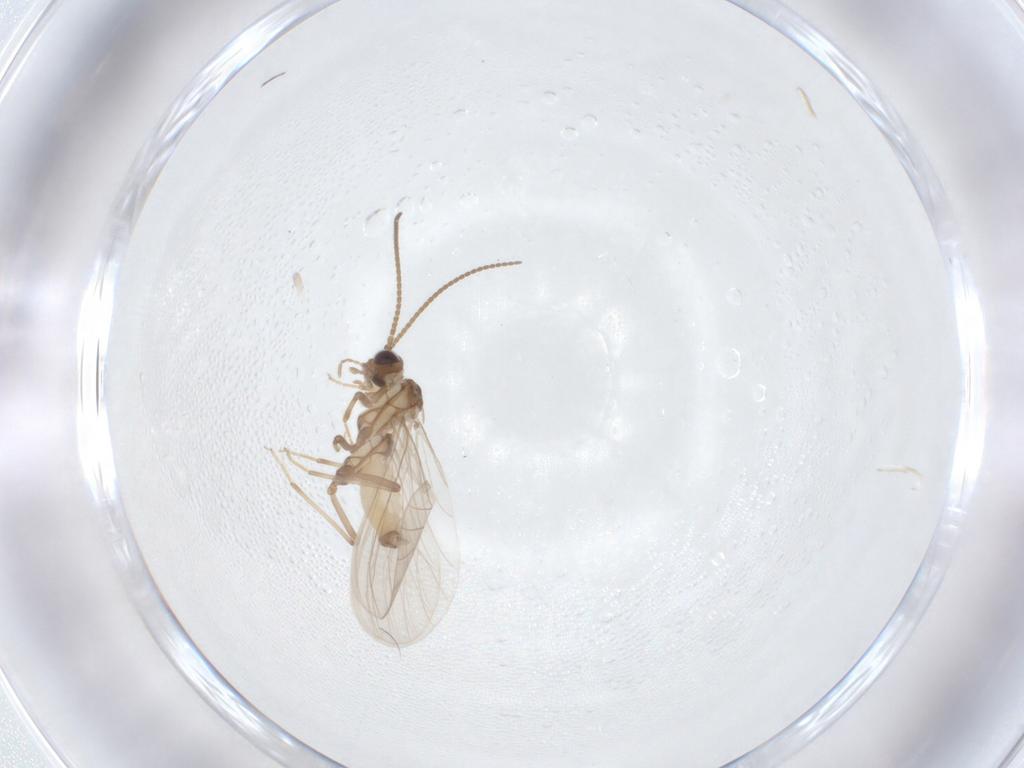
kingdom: Animalia
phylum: Arthropoda
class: Insecta
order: Neuroptera
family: Coniopterygidae
